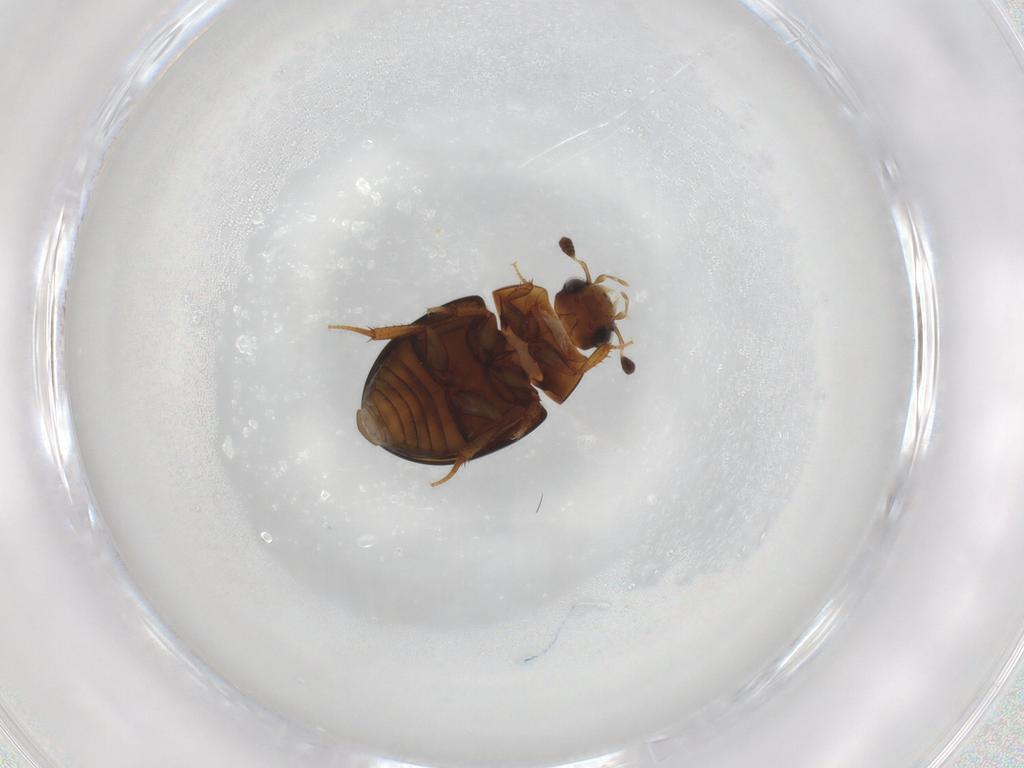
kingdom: Animalia
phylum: Arthropoda
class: Insecta
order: Coleoptera
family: Hydrophilidae
